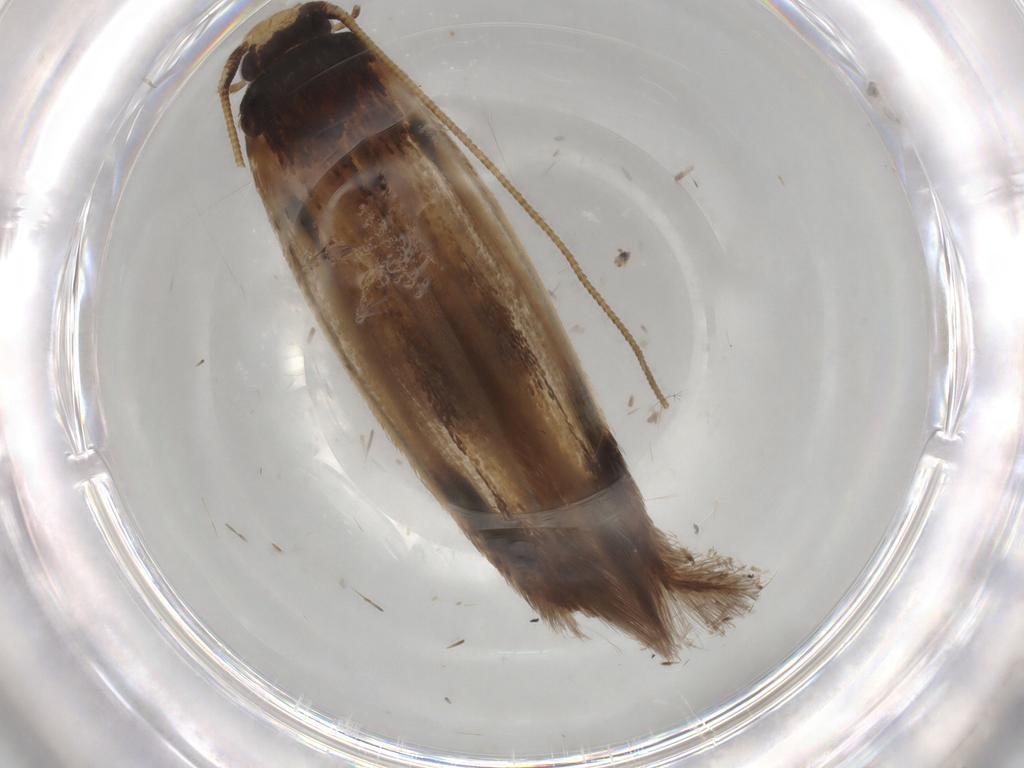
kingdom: Animalia
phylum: Arthropoda
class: Insecta
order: Lepidoptera
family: Tineidae
